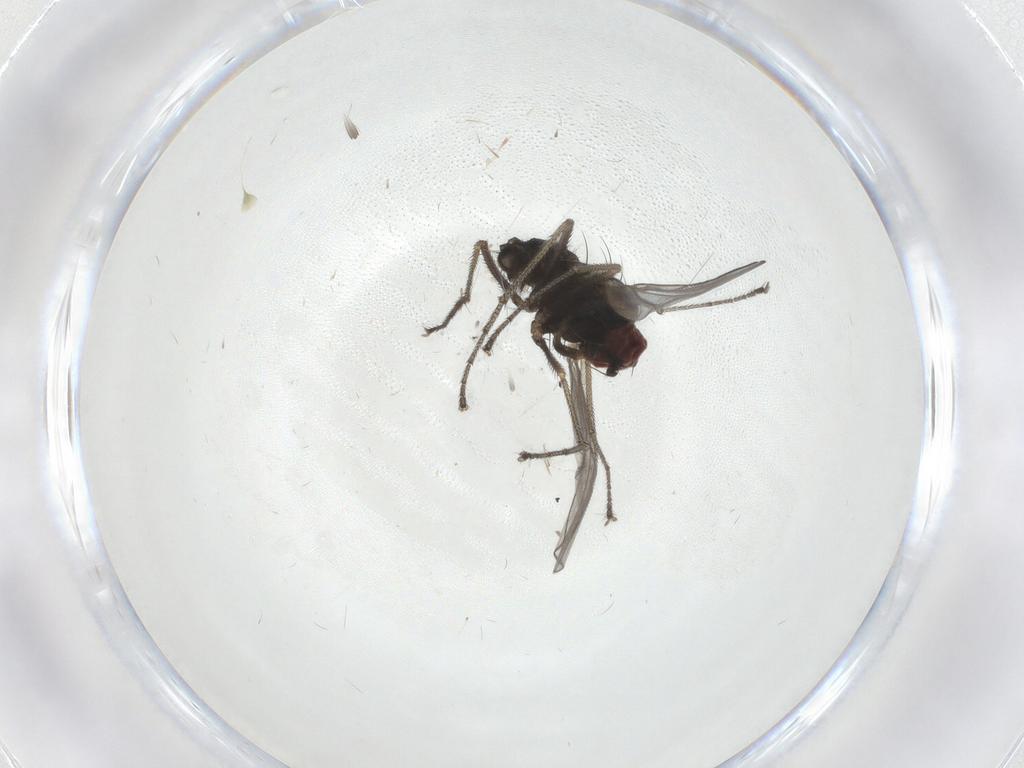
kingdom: Animalia
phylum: Arthropoda
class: Insecta
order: Diptera
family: Dolichopodidae
